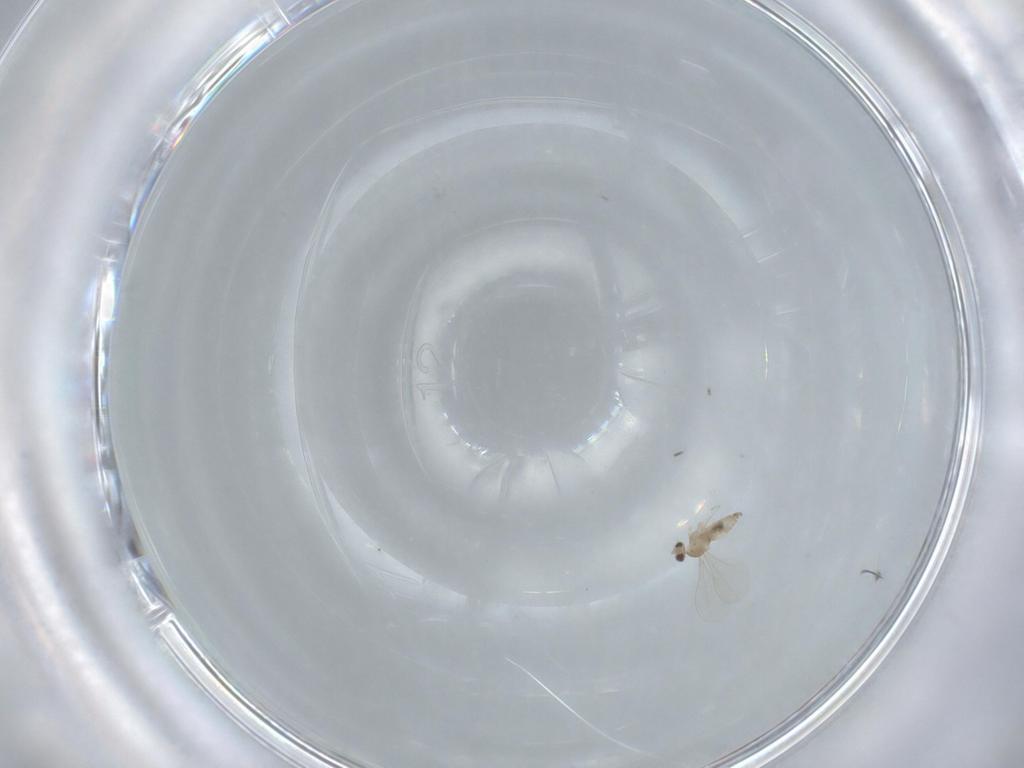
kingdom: Animalia
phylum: Arthropoda
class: Insecta
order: Diptera
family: Cecidomyiidae
